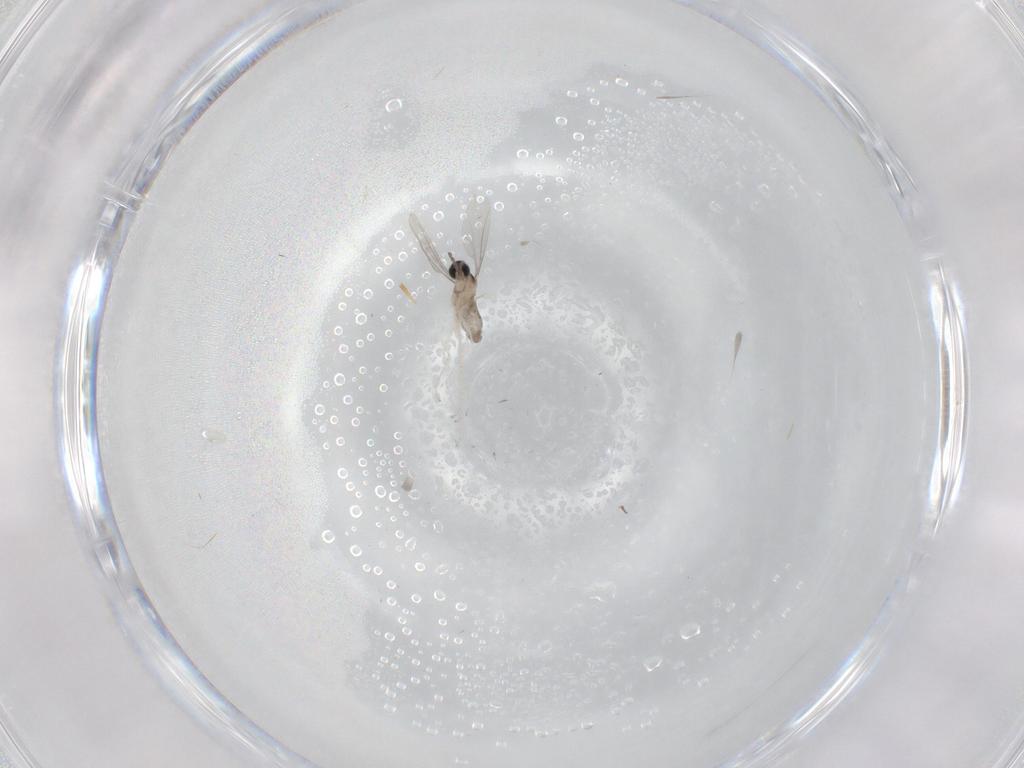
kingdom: Animalia
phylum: Arthropoda
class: Insecta
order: Diptera
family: Cecidomyiidae
